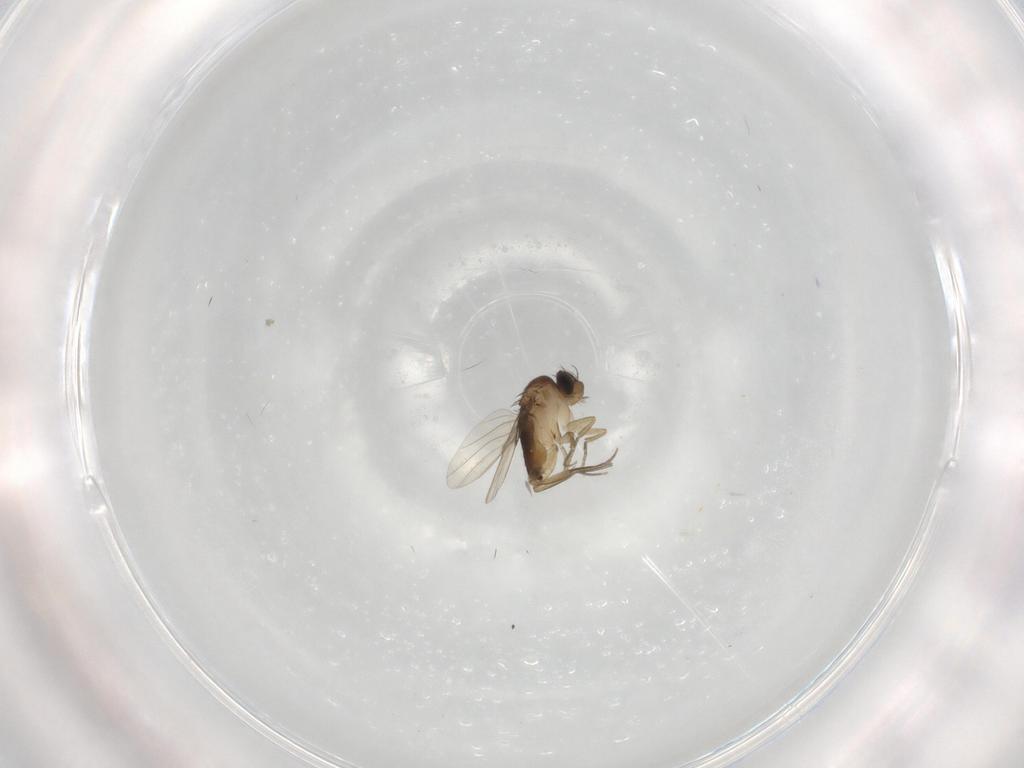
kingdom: Animalia
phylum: Arthropoda
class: Insecta
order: Diptera
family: Phoridae
